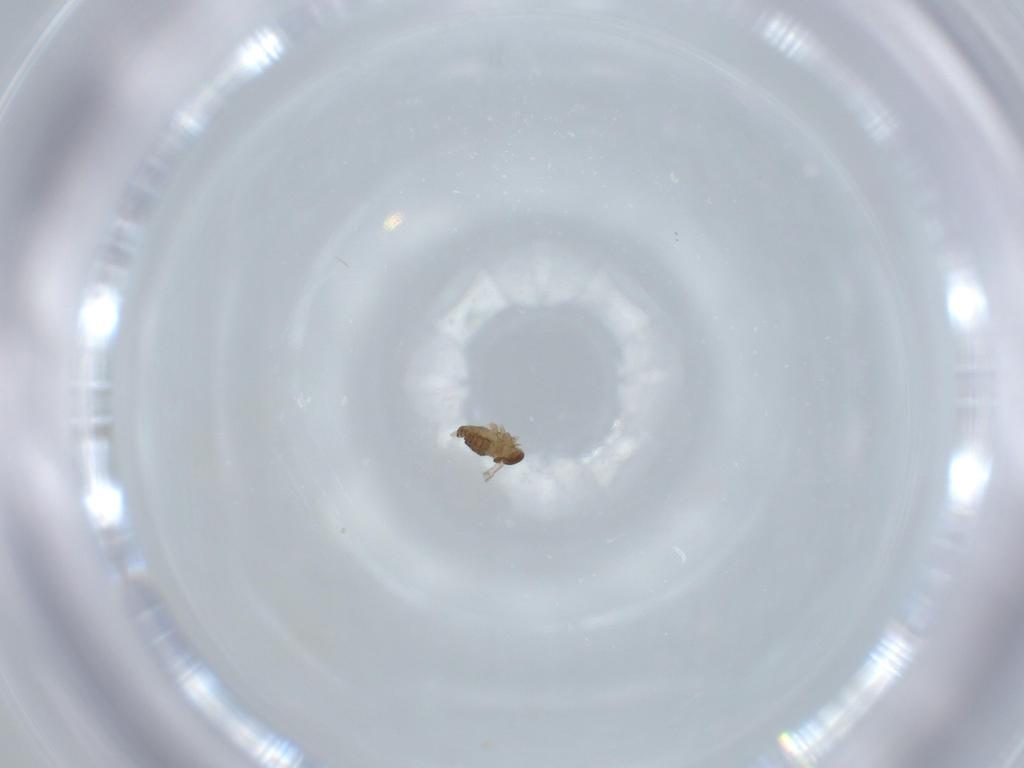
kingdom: Animalia
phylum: Arthropoda
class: Insecta
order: Diptera
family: Cecidomyiidae
